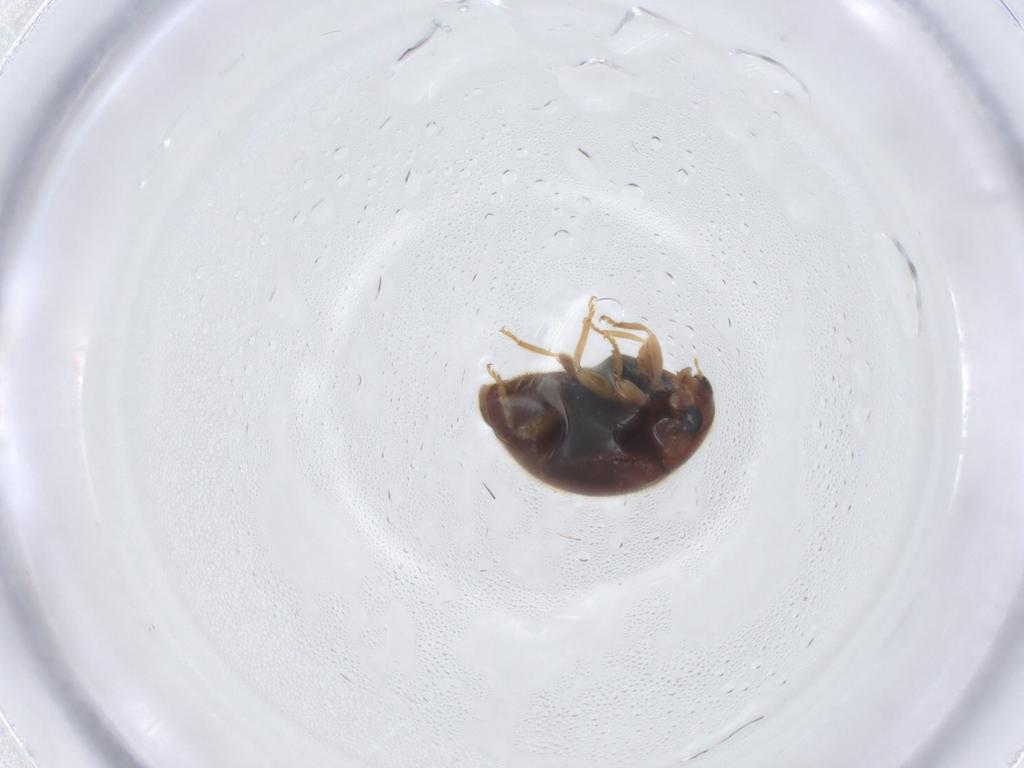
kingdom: Animalia
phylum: Arthropoda
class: Insecta
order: Coleoptera
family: Coccinellidae
